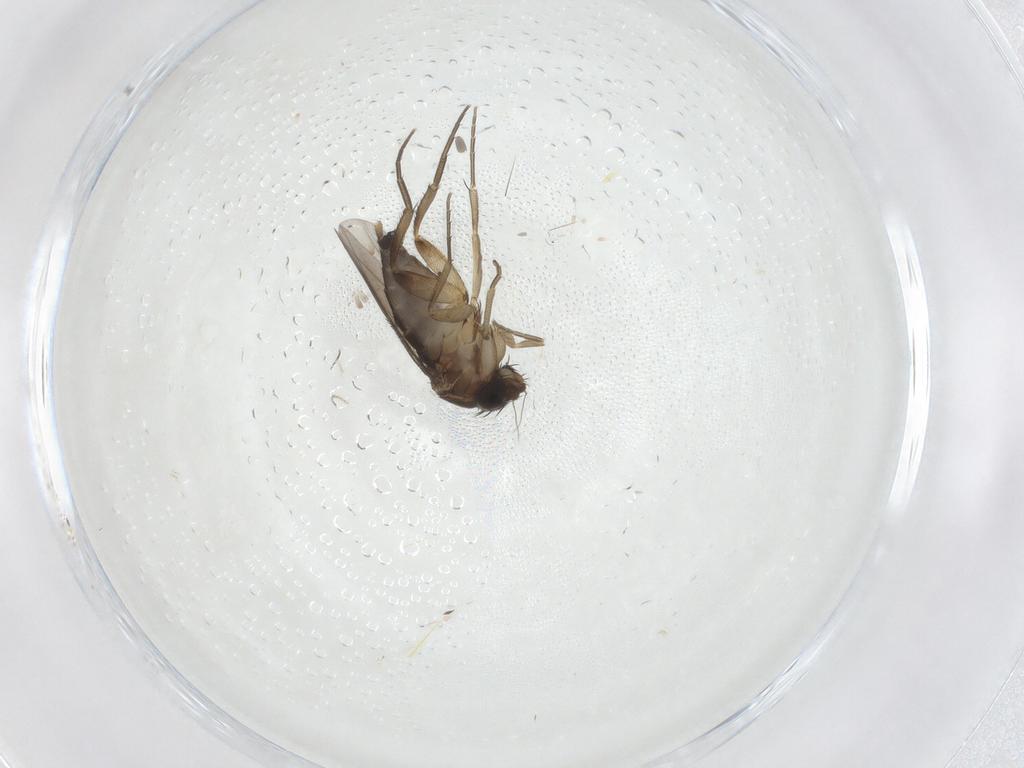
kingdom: Animalia
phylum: Arthropoda
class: Insecta
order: Diptera
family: Phoridae
